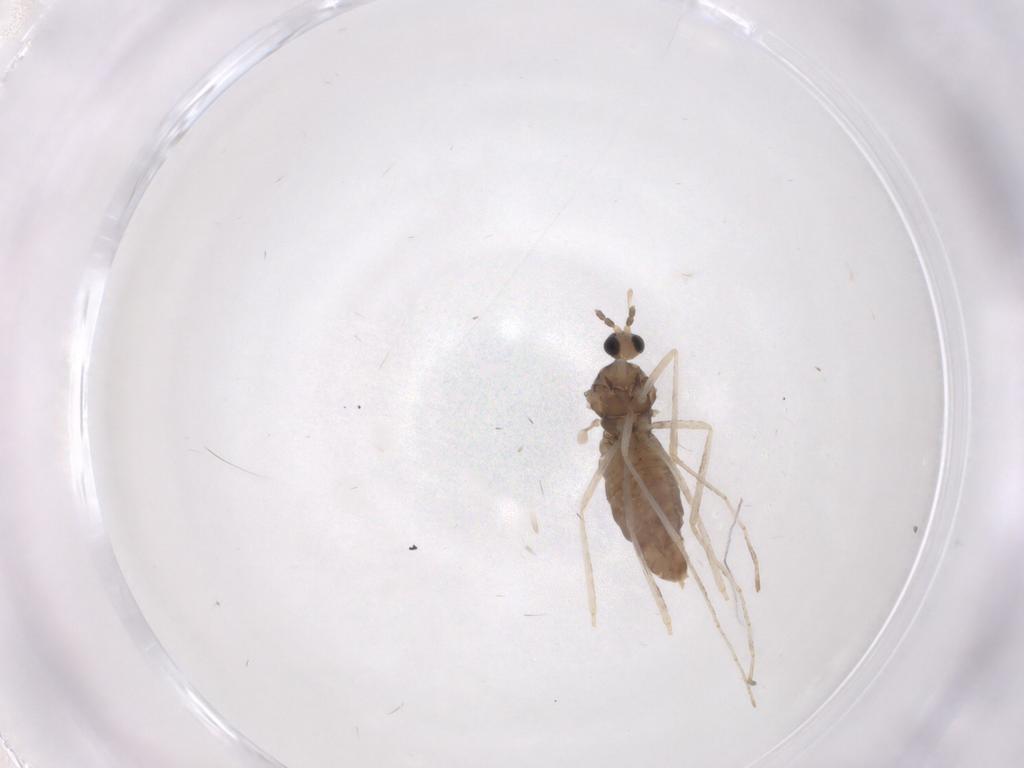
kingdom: Animalia
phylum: Arthropoda
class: Insecta
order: Diptera
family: Cecidomyiidae
